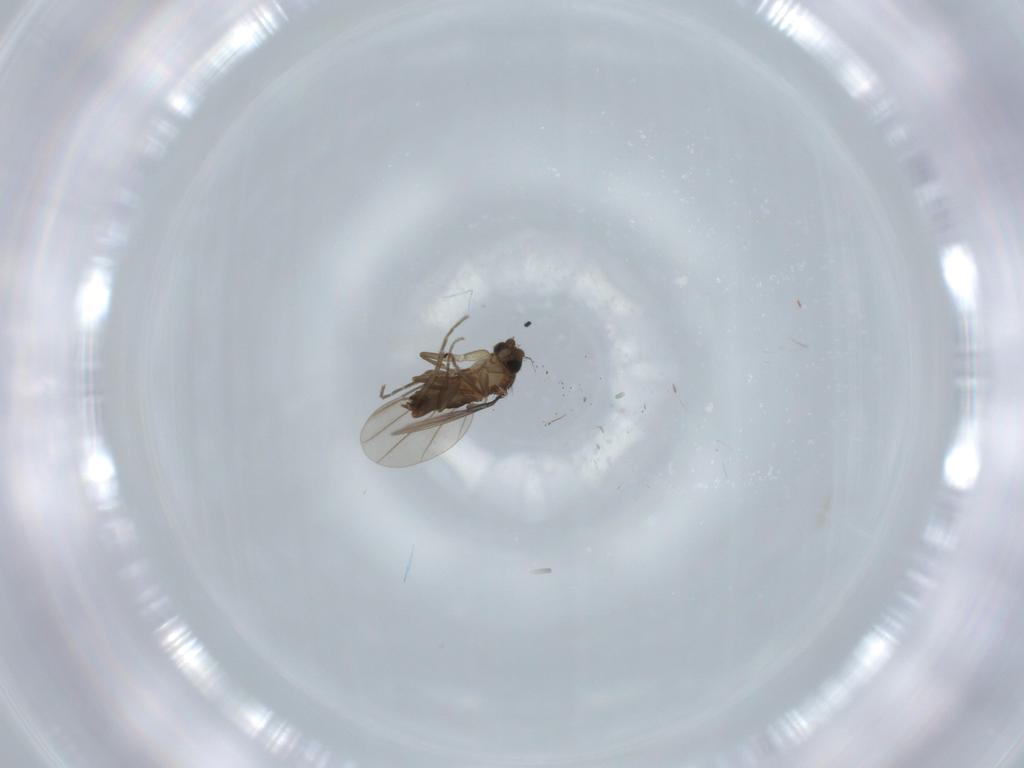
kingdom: Animalia
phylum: Arthropoda
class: Insecta
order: Diptera
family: Phoridae
